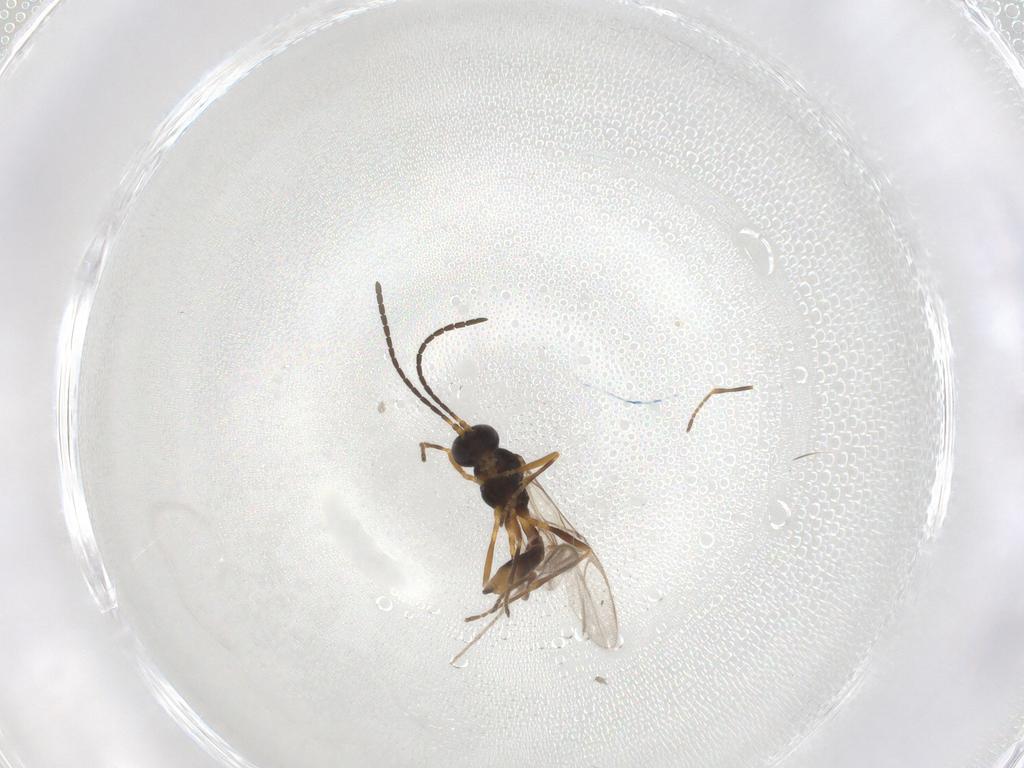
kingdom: Animalia
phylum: Arthropoda
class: Insecta
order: Hymenoptera
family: Braconidae
